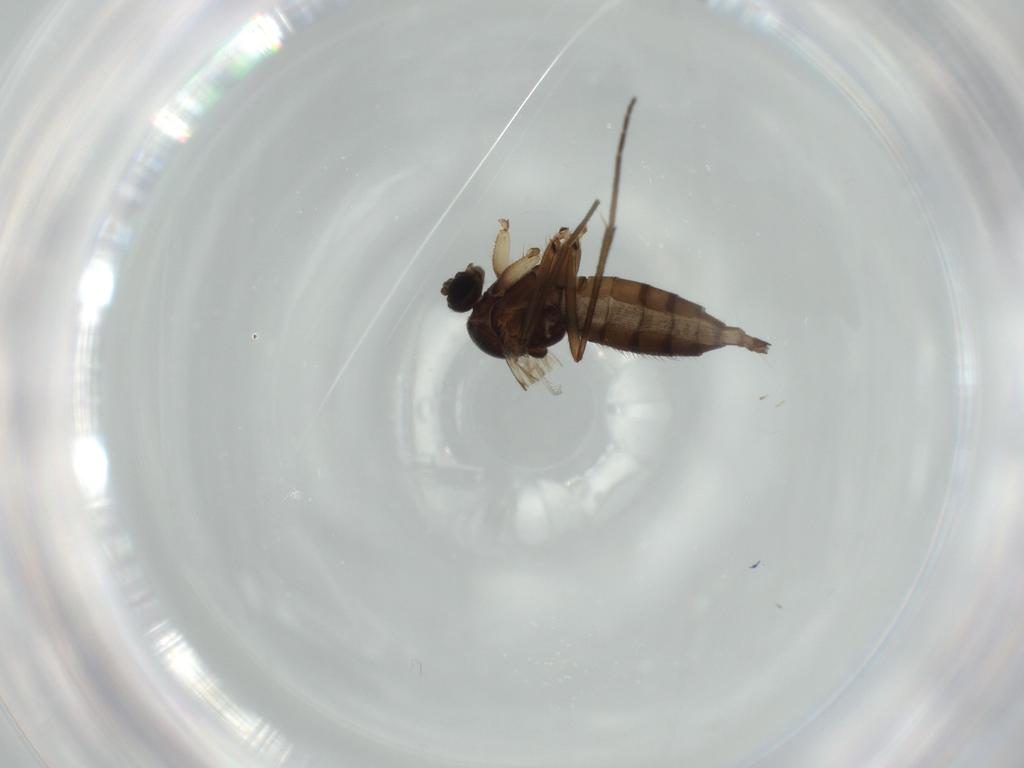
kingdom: Animalia
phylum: Arthropoda
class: Insecta
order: Diptera
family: Sciaridae
